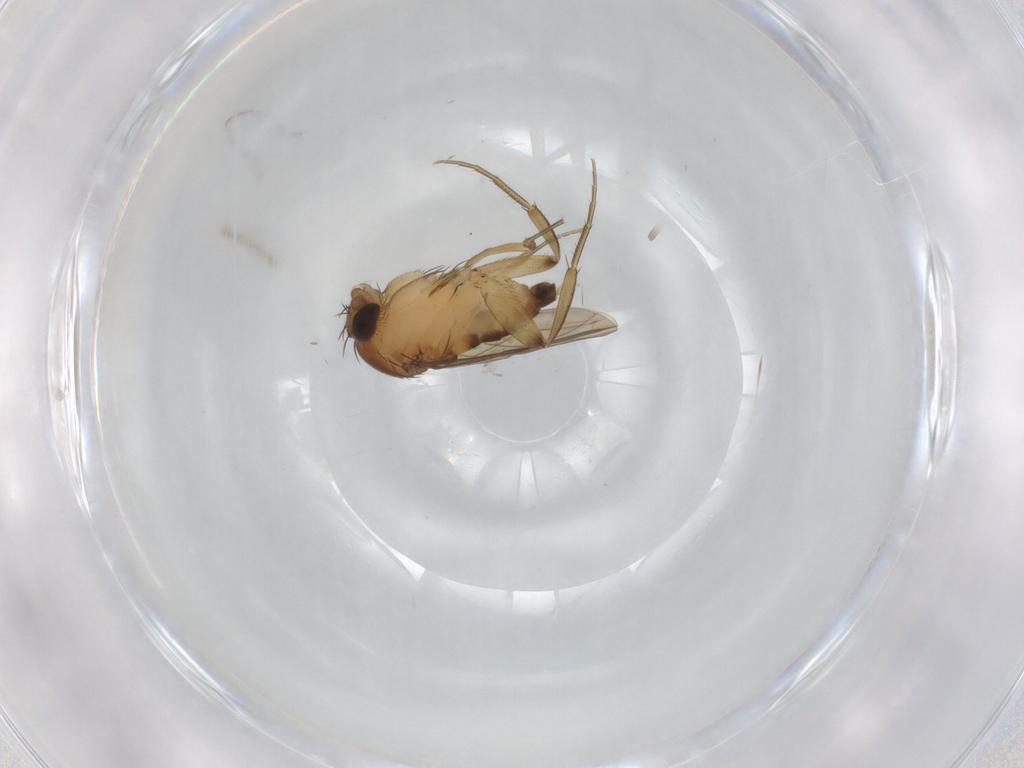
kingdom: Animalia
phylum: Arthropoda
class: Insecta
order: Diptera
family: Phoridae
